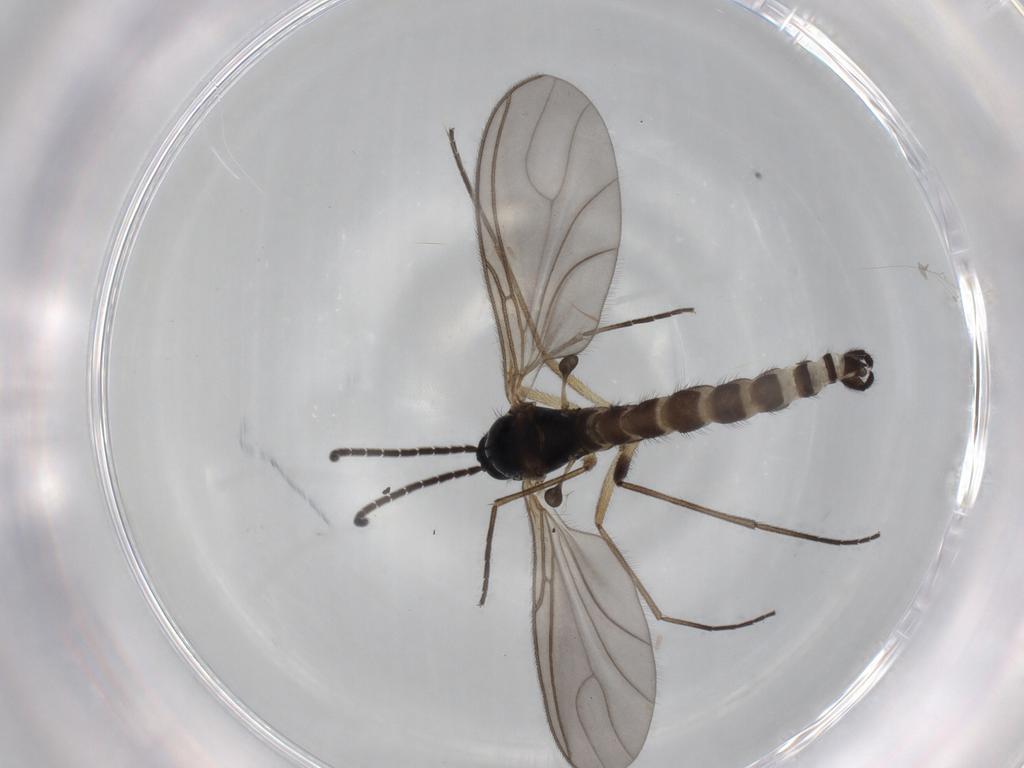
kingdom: Animalia
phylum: Arthropoda
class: Insecta
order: Diptera
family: Sciaridae
